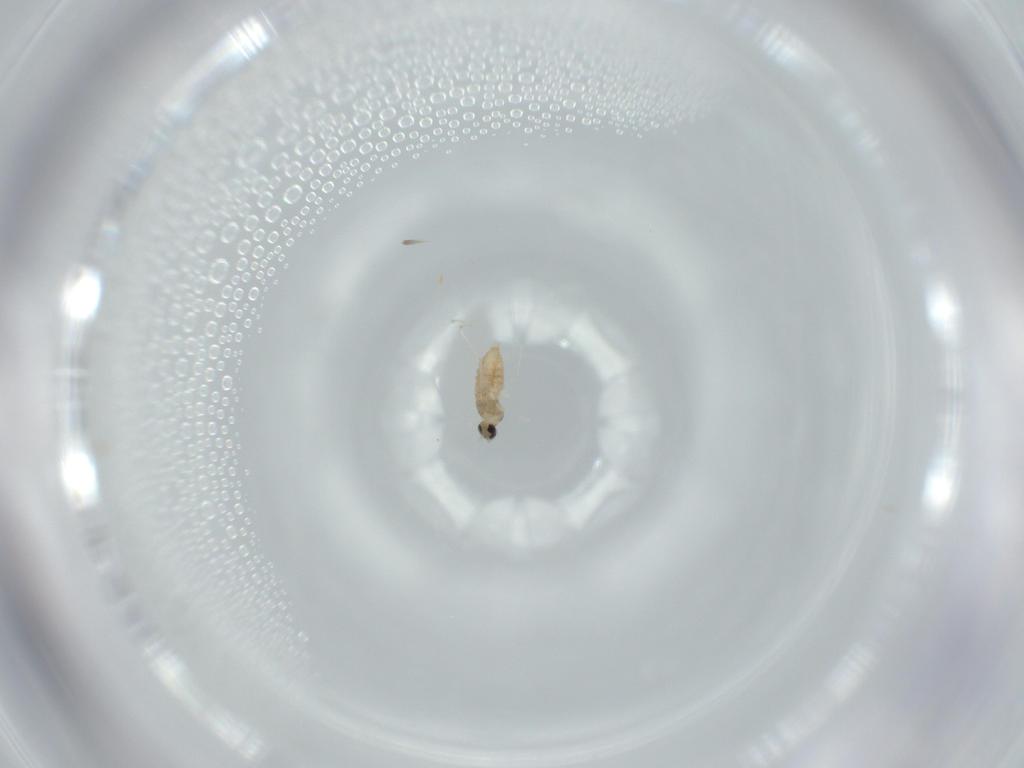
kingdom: Animalia
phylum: Arthropoda
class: Insecta
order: Diptera
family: Cecidomyiidae
